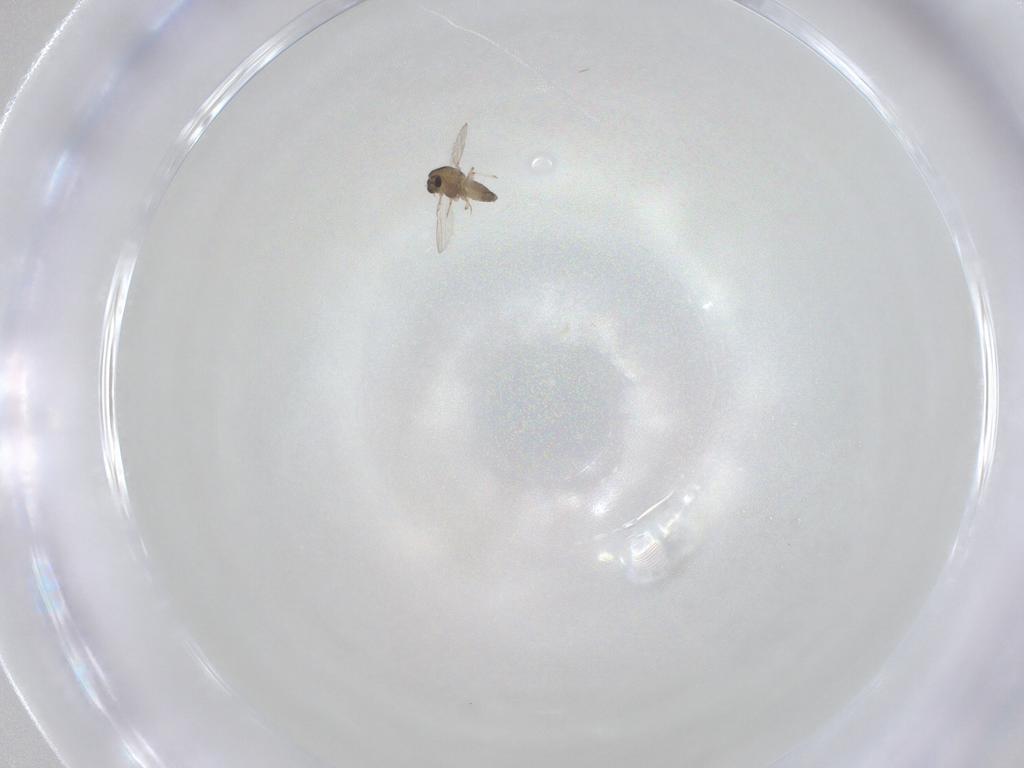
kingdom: Animalia
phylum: Arthropoda
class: Insecta
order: Diptera
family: Chironomidae
